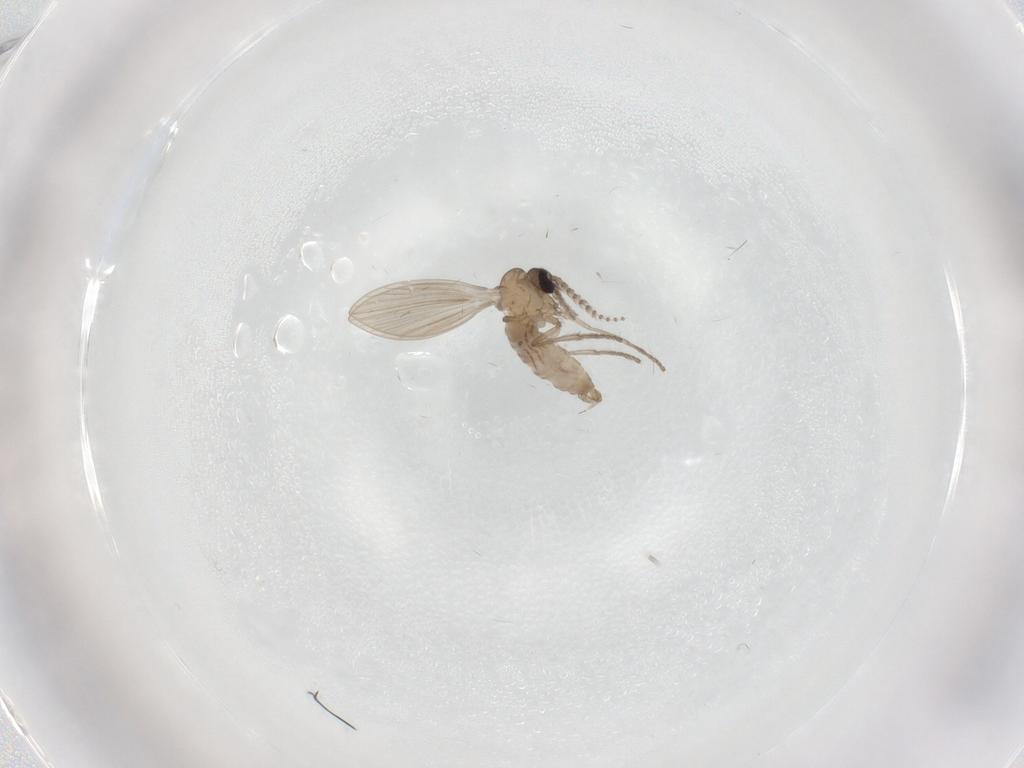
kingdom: Animalia
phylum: Arthropoda
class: Insecta
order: Diptera
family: Psychodidae
